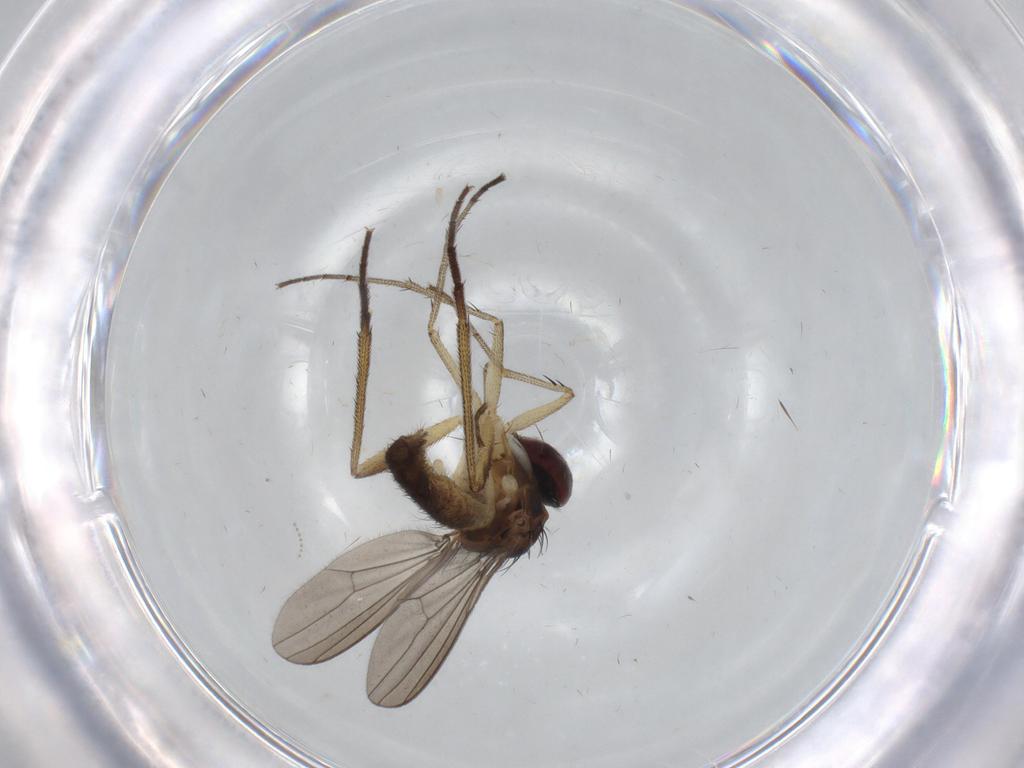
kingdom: Animalia
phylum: Arthropoda
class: Insecta
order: Diptera
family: Dolichopodidae
